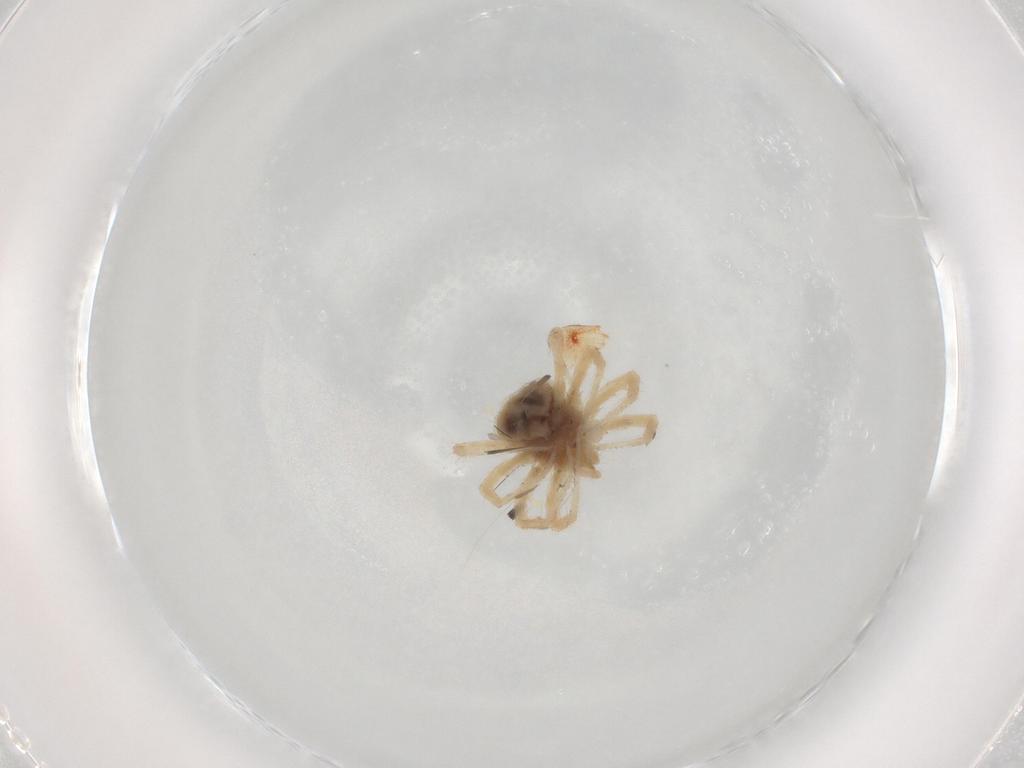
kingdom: Animalia
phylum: Arthropoda
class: Arachnida
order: Trombidiformes
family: Anystidae
